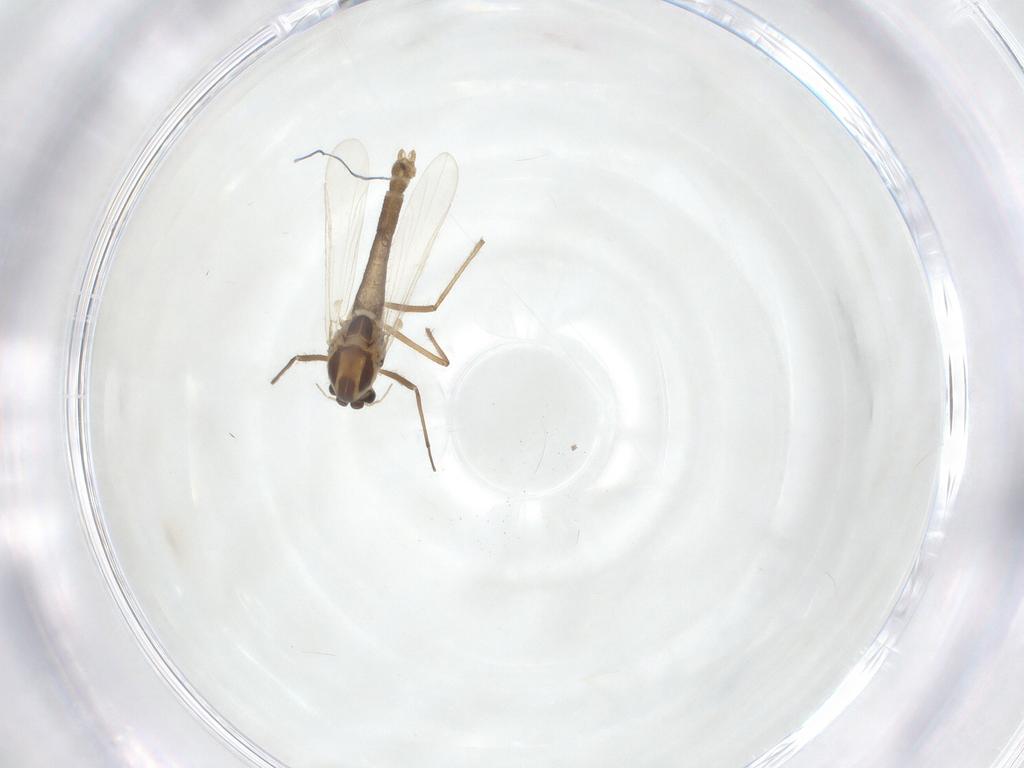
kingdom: Animalia
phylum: Arthropoda
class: Insecta
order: Diptera
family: Chironomidae
